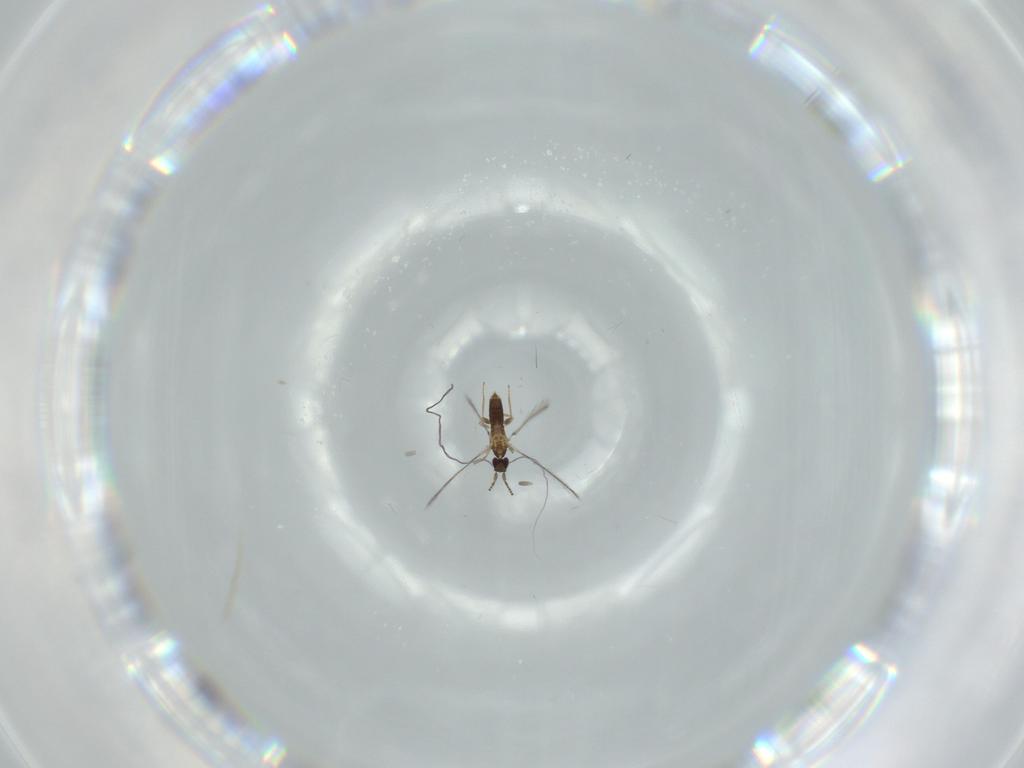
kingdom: Animalia
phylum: Arthropoda
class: Insecta
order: Hymenoptera
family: Mymaridae
